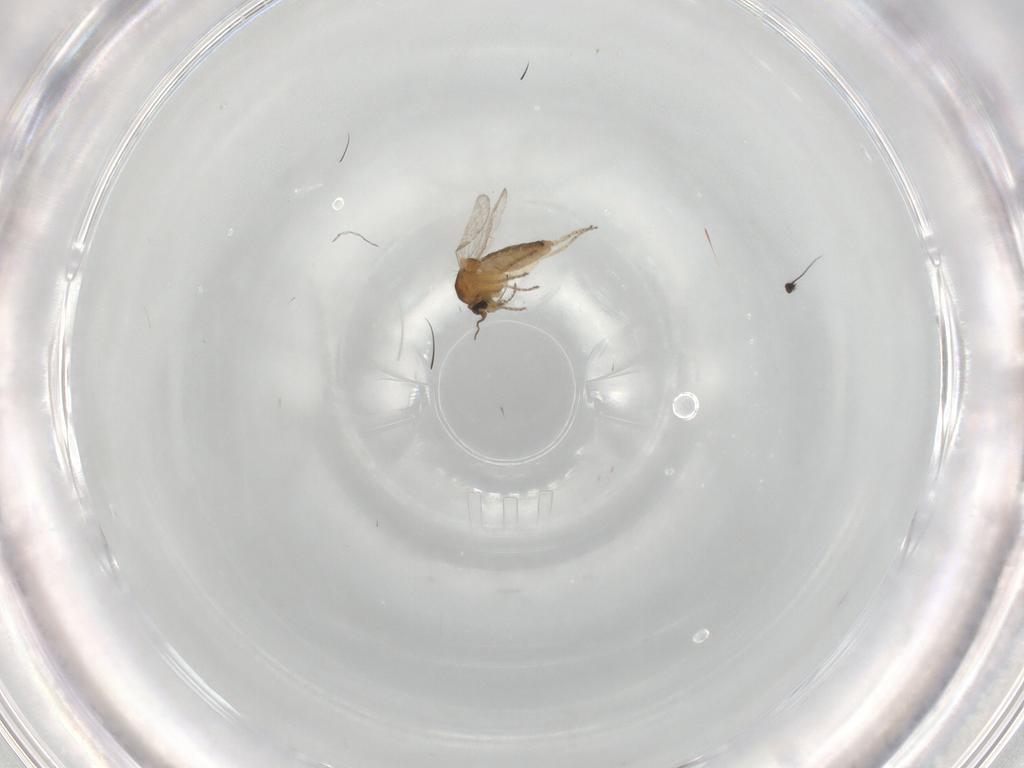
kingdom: Animalia
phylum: Arthropoda
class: Insecta
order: Diptera
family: Ceratopogonidae
